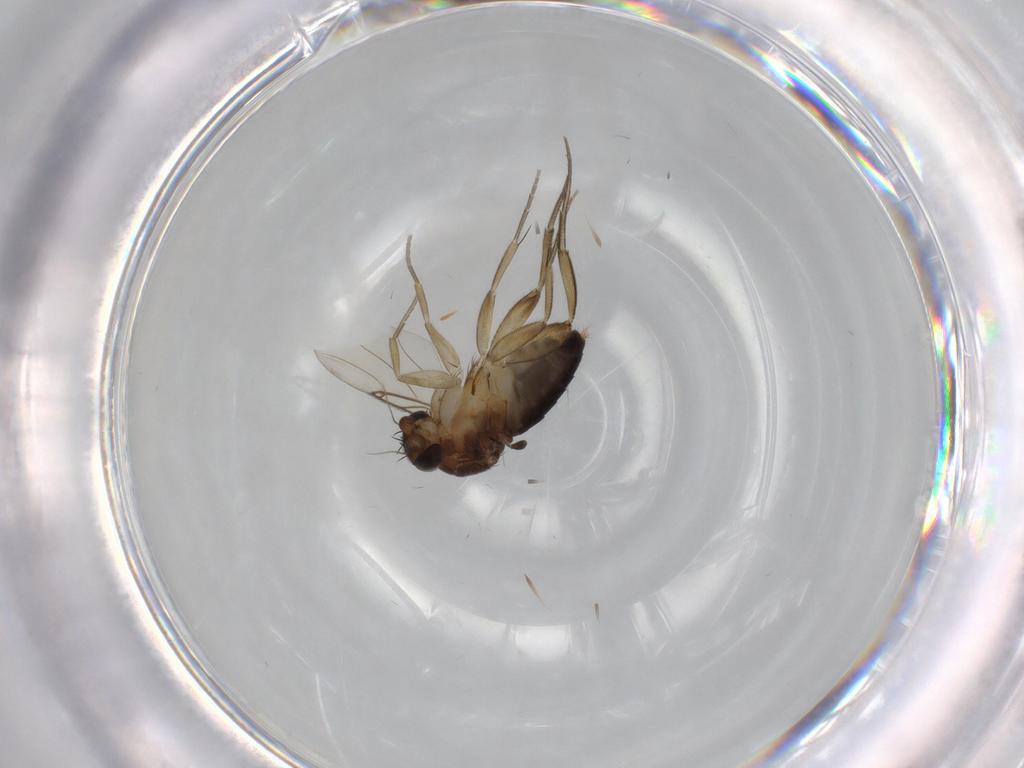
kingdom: Animalia
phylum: Arthropoda
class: Insecta
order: Diptera
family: Phoridae
